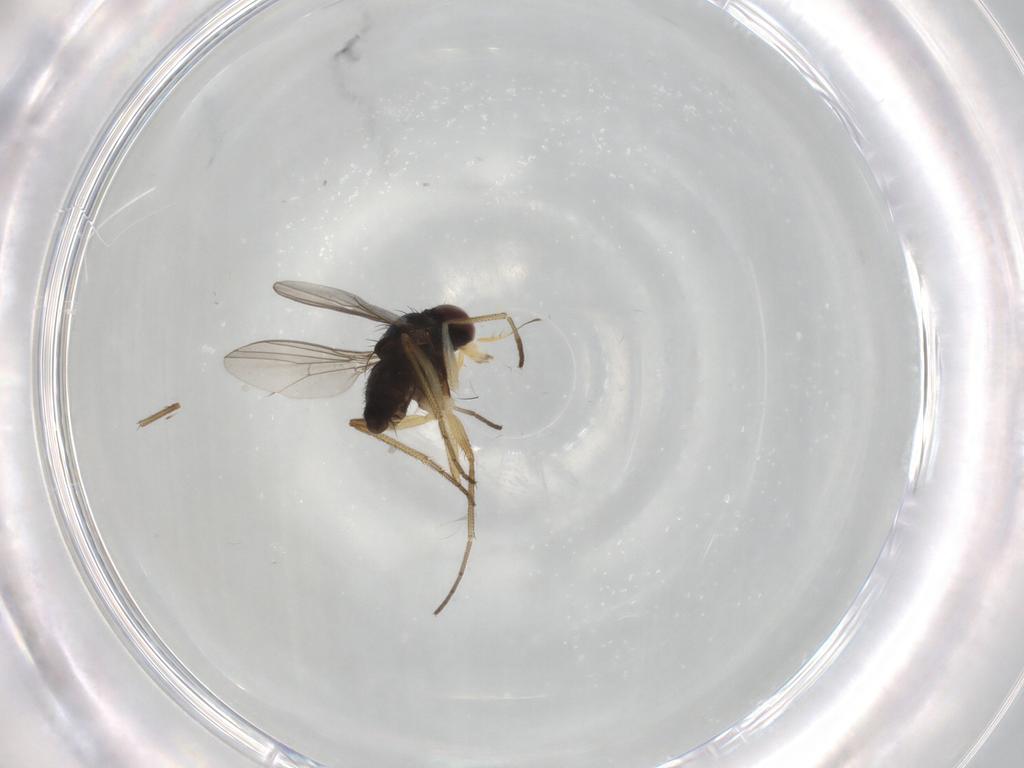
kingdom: Animalia
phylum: Arthropoda
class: Insecta
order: Diptera
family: Dolichopodidae
